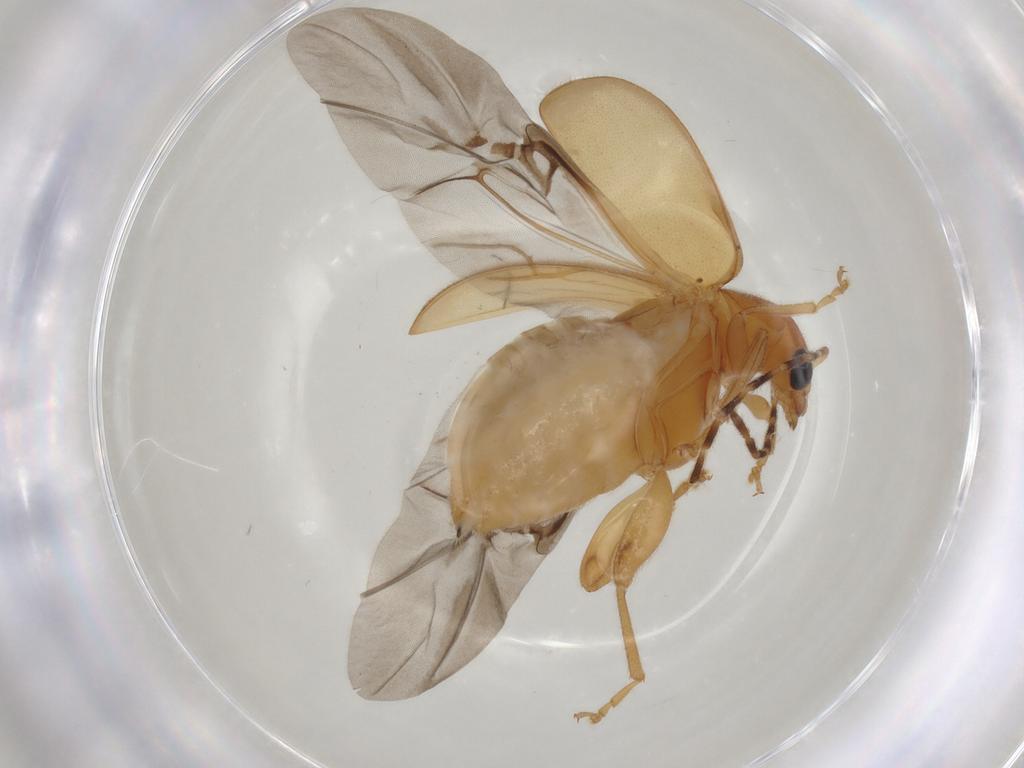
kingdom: Animalia
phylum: Arthropoda
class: Insecta
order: Coleoptera
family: Chrysomelidae
